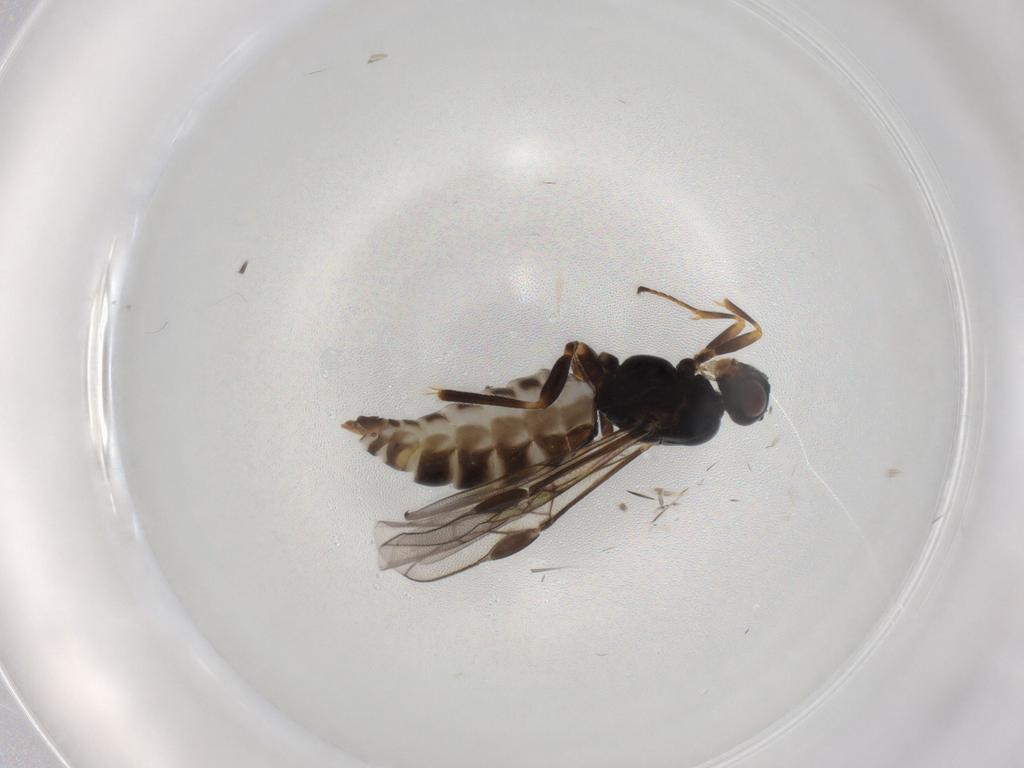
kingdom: Animalia
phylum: Arthropoda
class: Insecta
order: Hymenoptera
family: Braconidae
